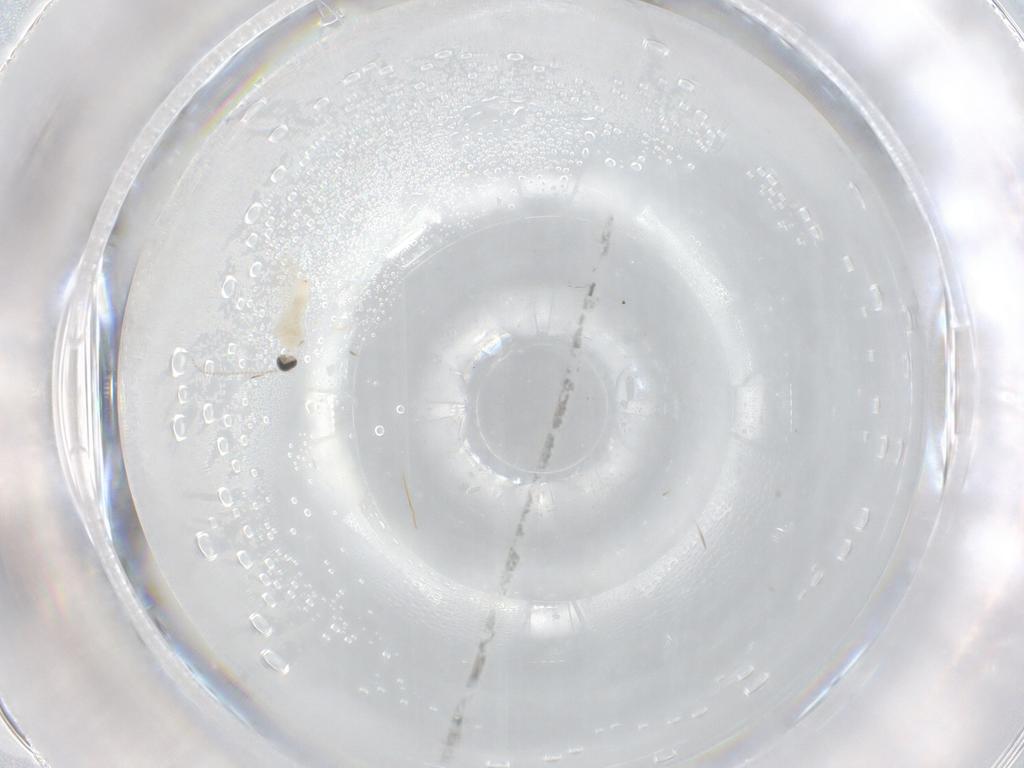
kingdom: Animalia
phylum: Arthropoda
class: Insecta
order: Diptera
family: Cecidomyiidae
